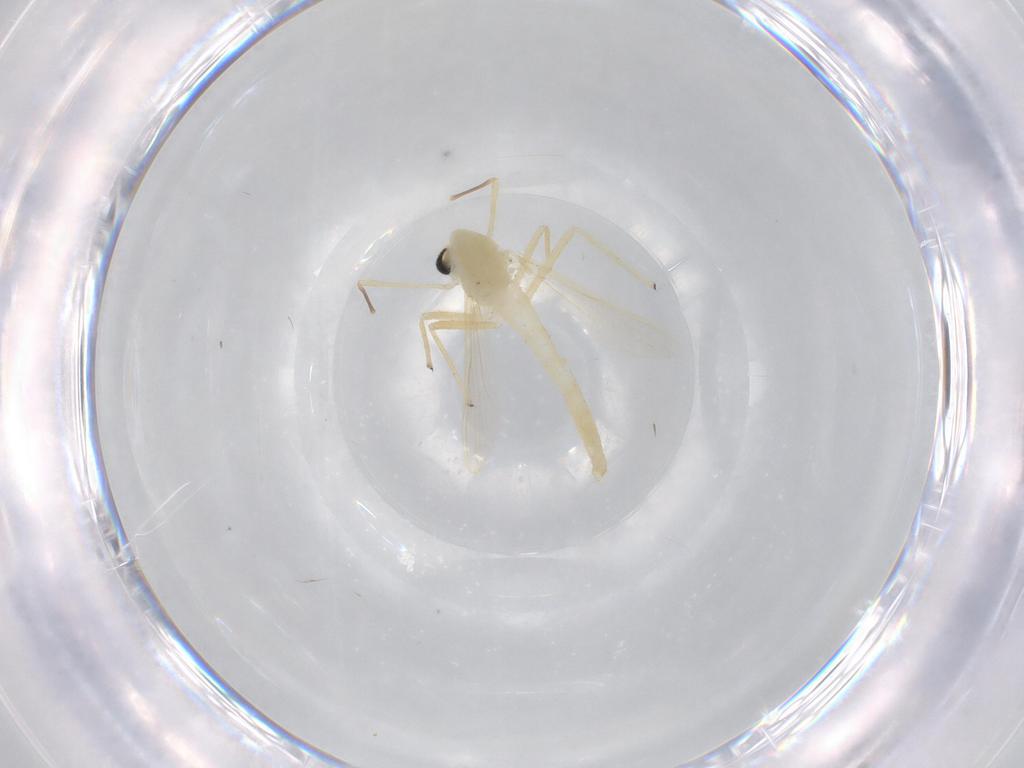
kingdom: Animalia
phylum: Arthropoda
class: Insecta
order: Diptera
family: Chironomidae
